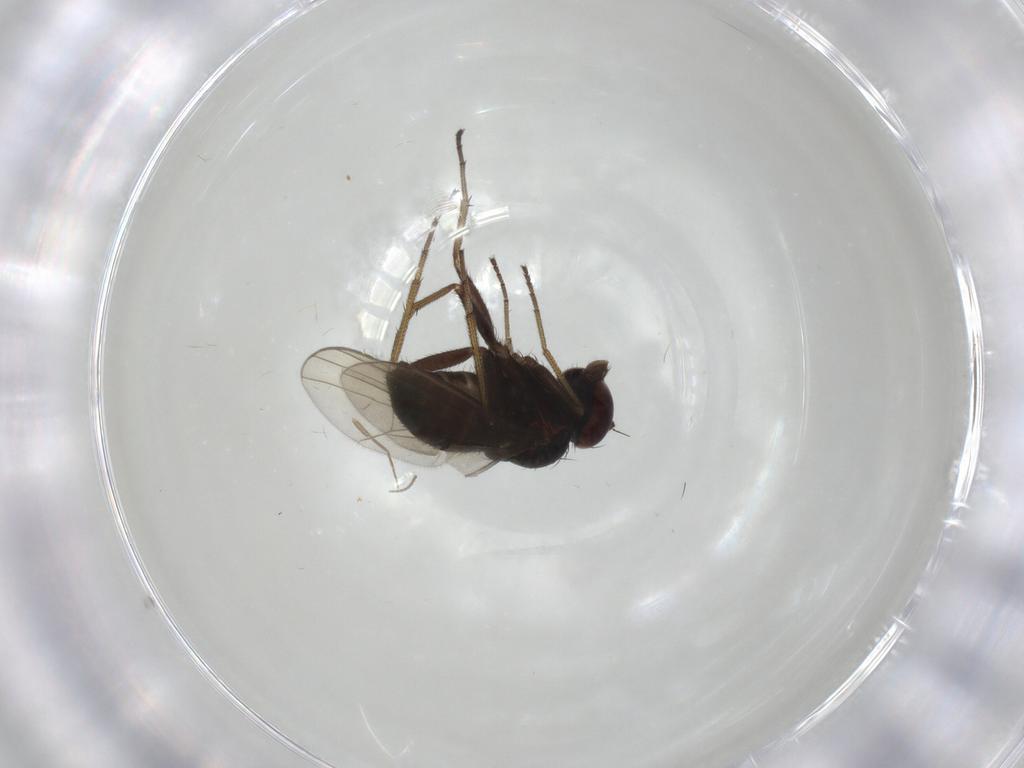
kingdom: Animalia
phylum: Arthropoda
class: Insecta
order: Diptera
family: Dolichopodidae
